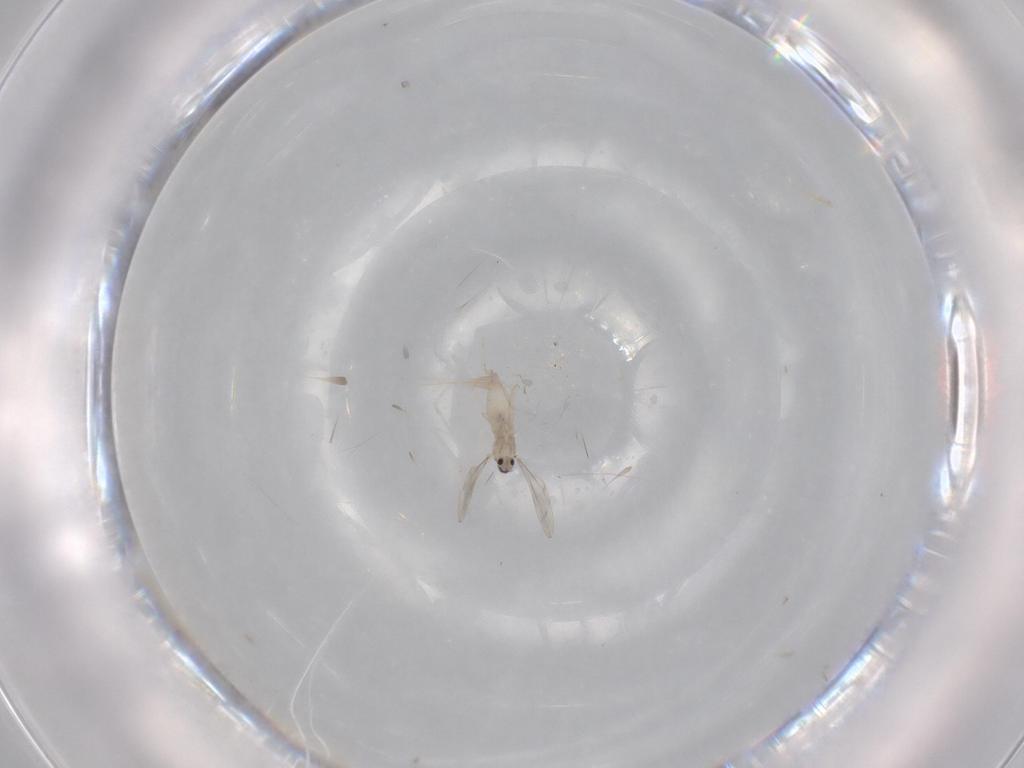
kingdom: Animalia
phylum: Arthropoda
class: Insecta
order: Diptera
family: Cecidomyiidae
